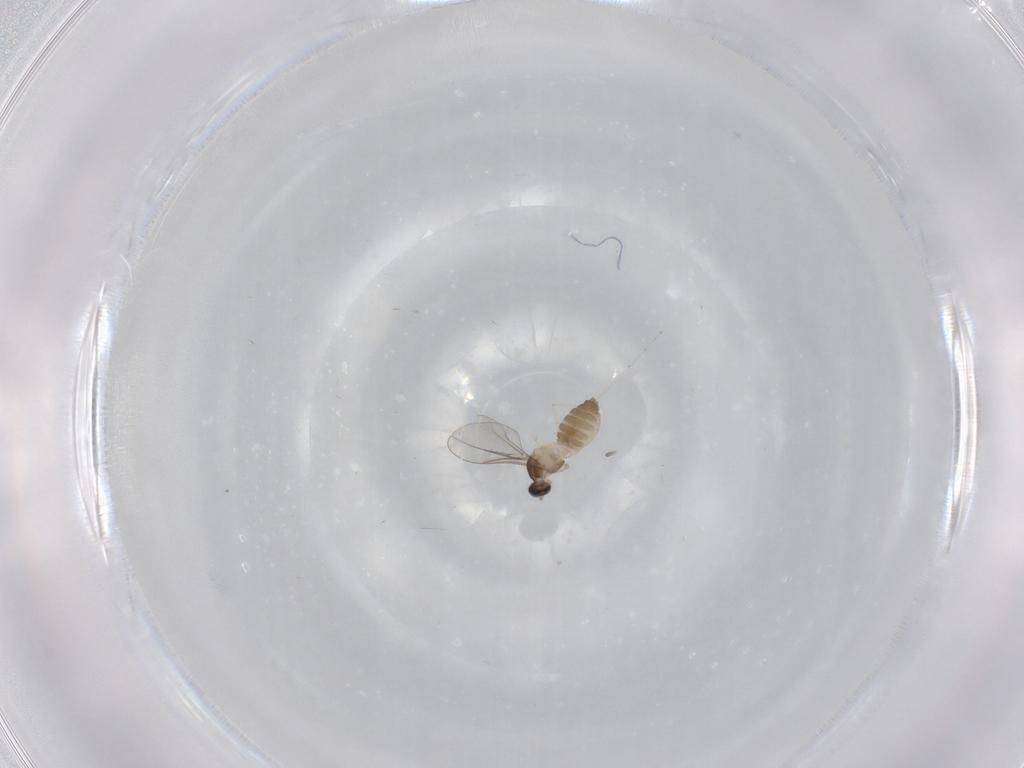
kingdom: Animalia
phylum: Arthropoda
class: Insecta
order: Diptera
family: Cecidomyiidae
